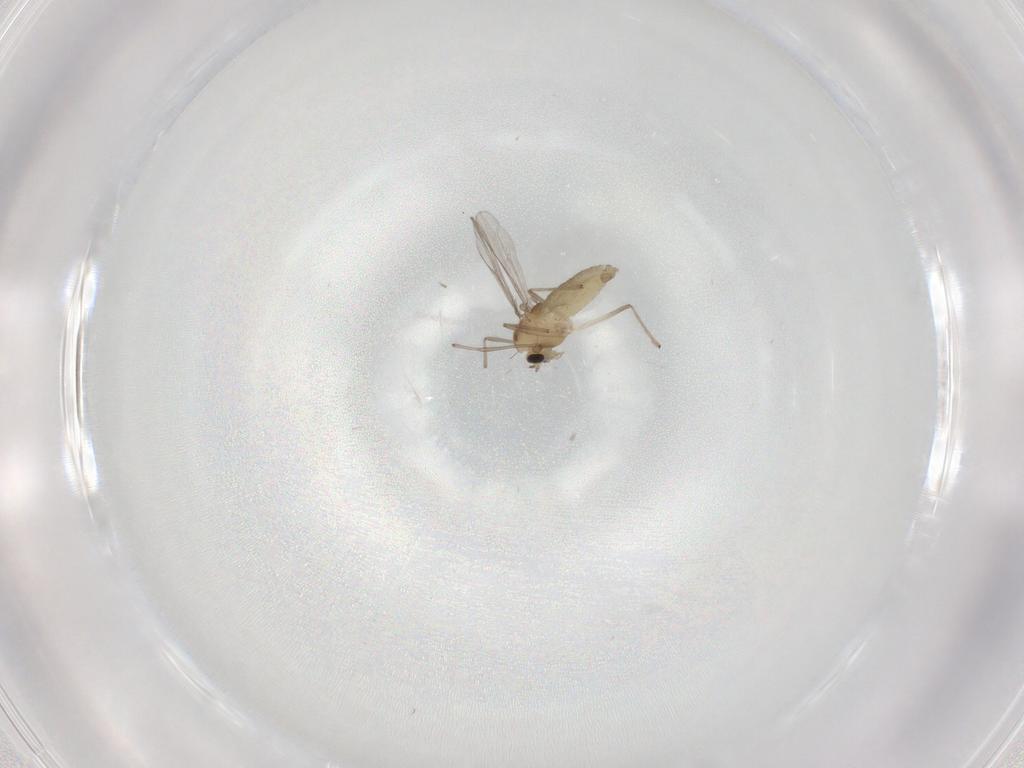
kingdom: Animalia
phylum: Arthropoda
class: Insecta
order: Diptera
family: Chironomidae
